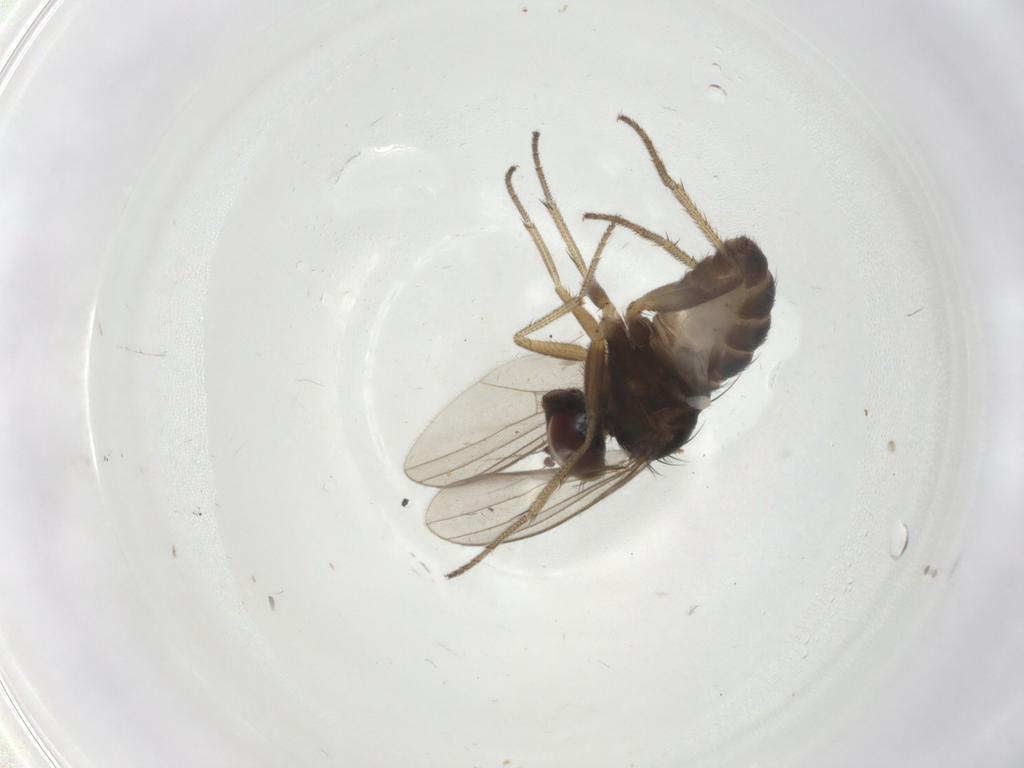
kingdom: Animalia
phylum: Arthropoda
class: Insecta
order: Diptera
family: Dolichopodidae
